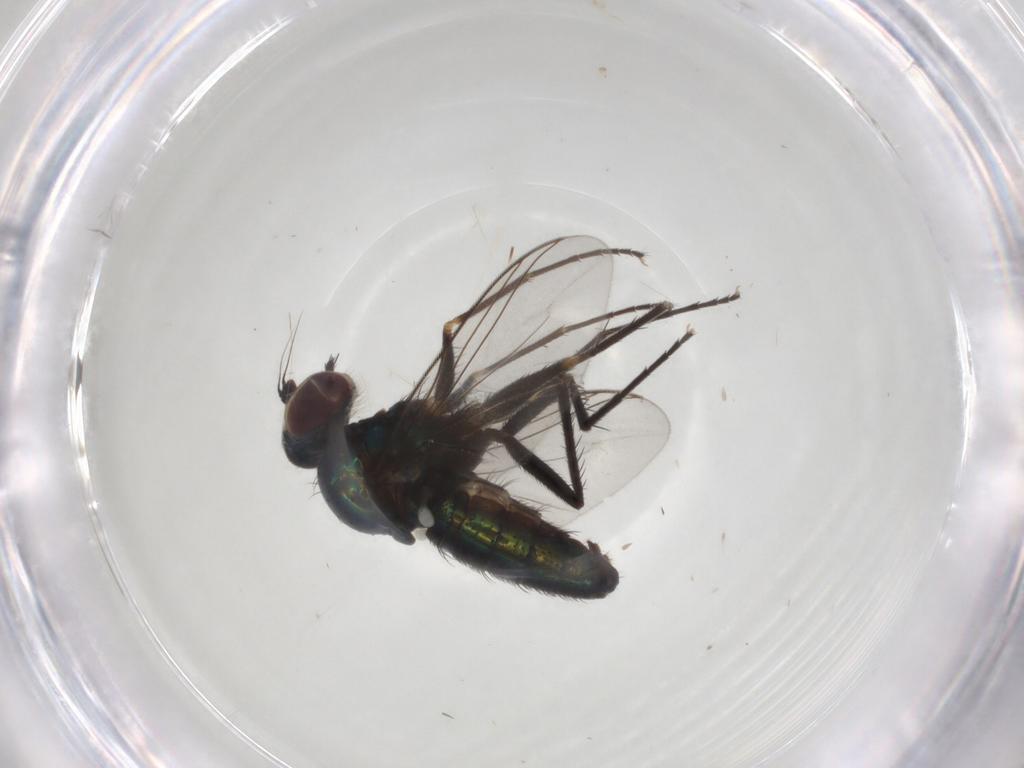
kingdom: Animalia
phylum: Arthropoda
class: Insecta
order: Diptera
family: Dolichopodidae
